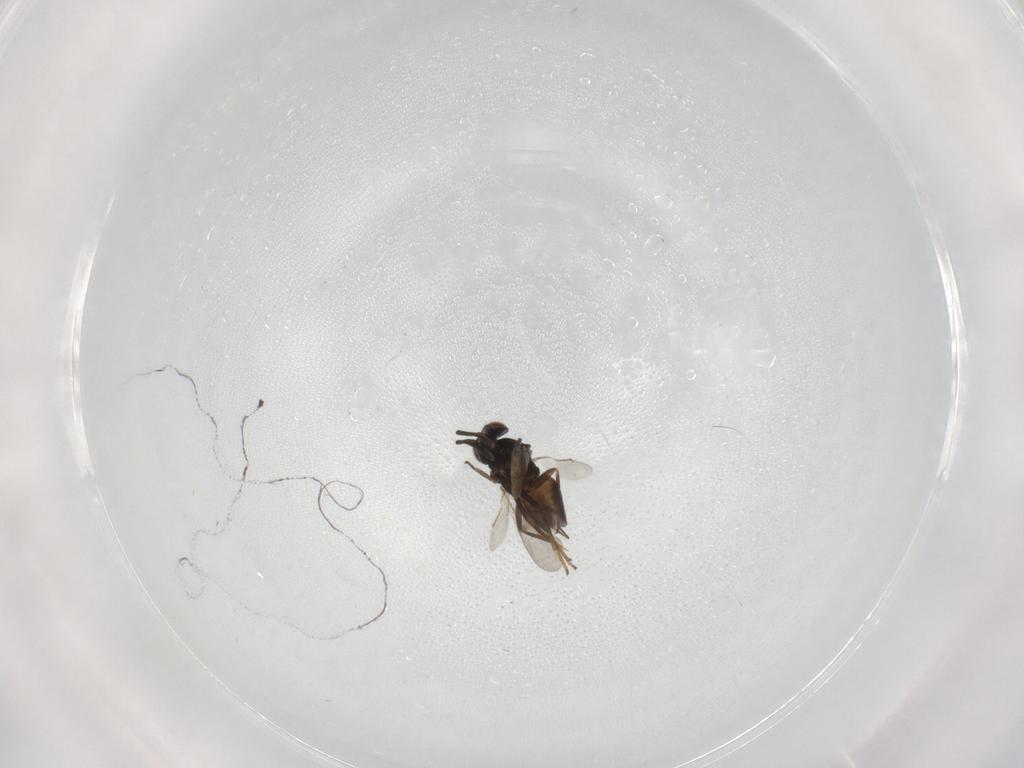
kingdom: Animalia
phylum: Arthropoda
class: Insecta
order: Hymenoptera
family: Encyrtidae
